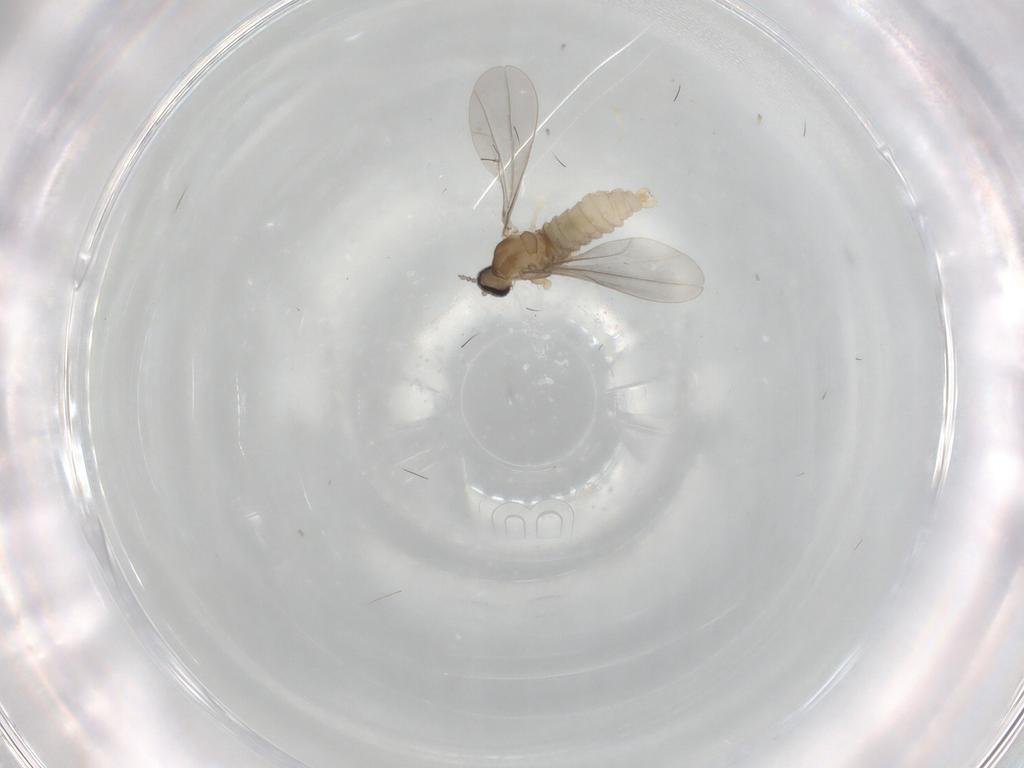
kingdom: Animalia
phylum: Arthropoda
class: Insecta
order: Diptera
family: Cecidomyiidae
